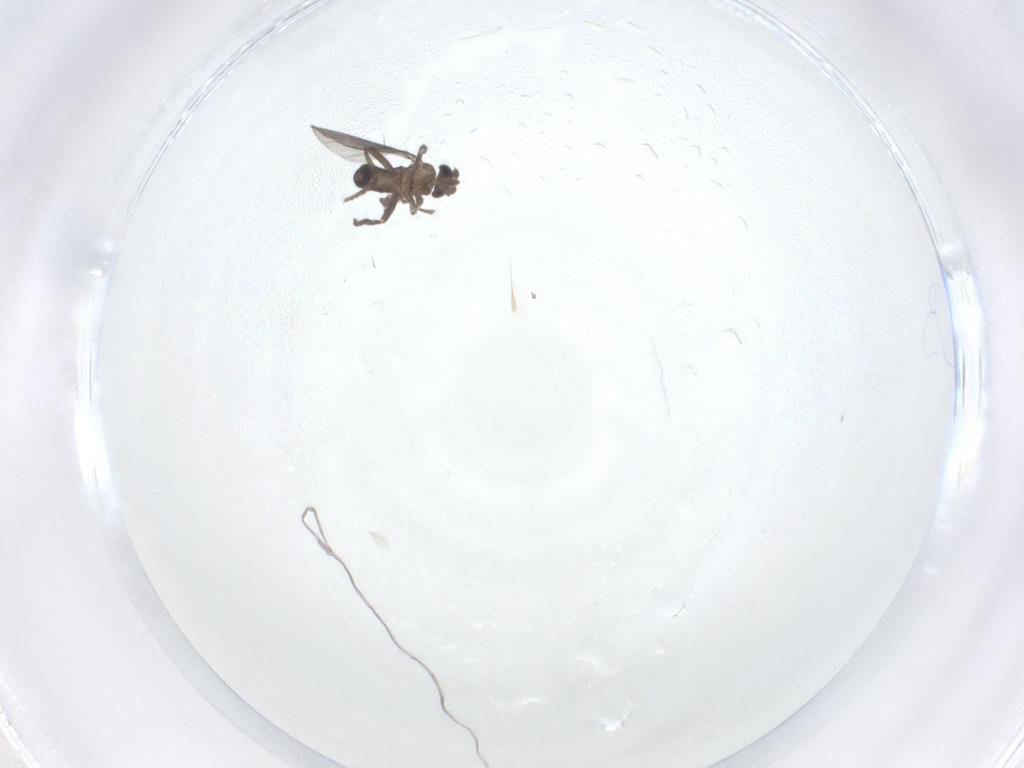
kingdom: Animalia
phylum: Arthropoda
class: Insecta
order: Diptera
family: Phoridae
